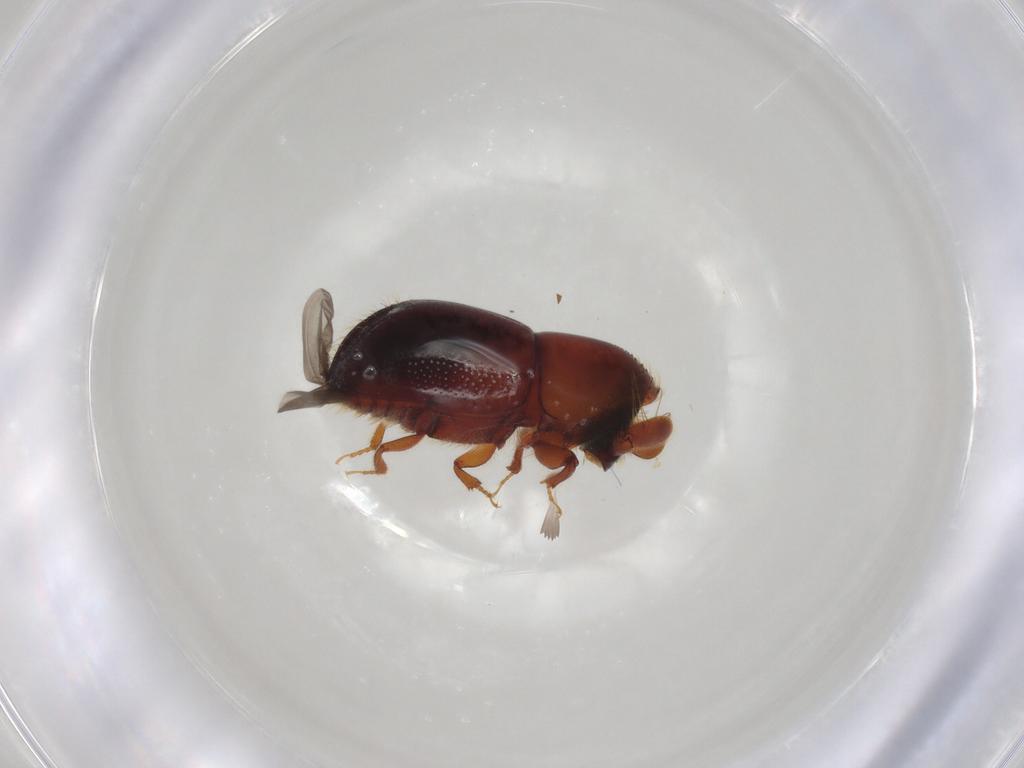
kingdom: Animalia
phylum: Arthropoda
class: Insecta
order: Coleoptera
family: Curculionidae
